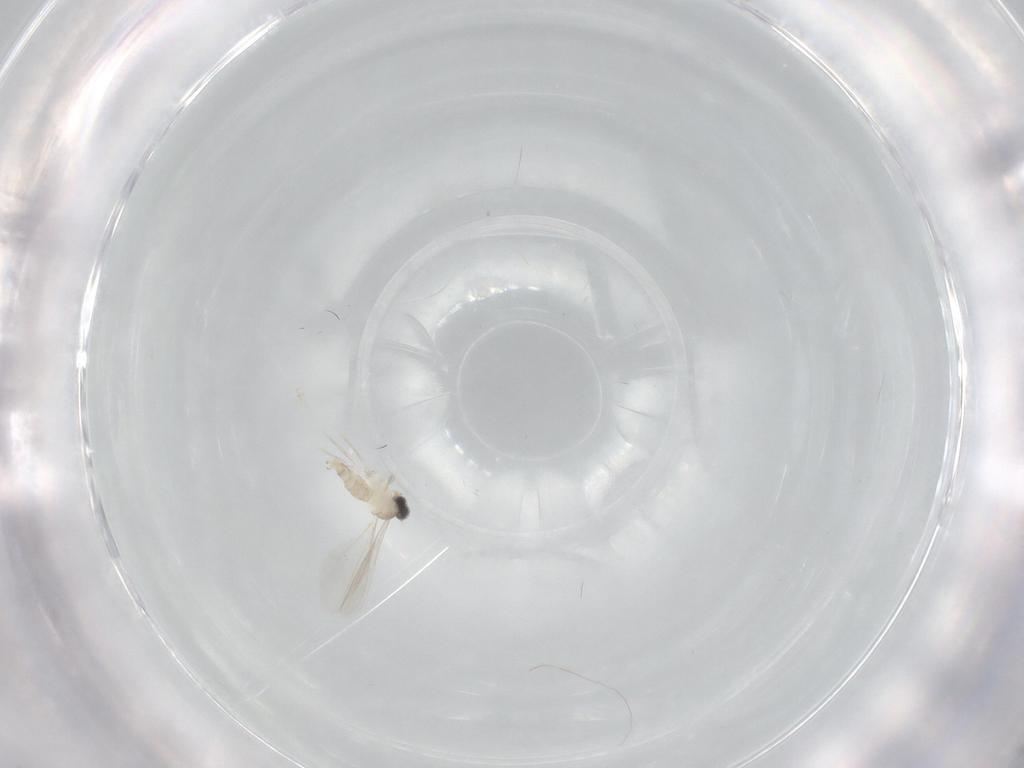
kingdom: Animalia
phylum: Arthropoda
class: Insecta
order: Diptera
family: Cecidomyiidae
